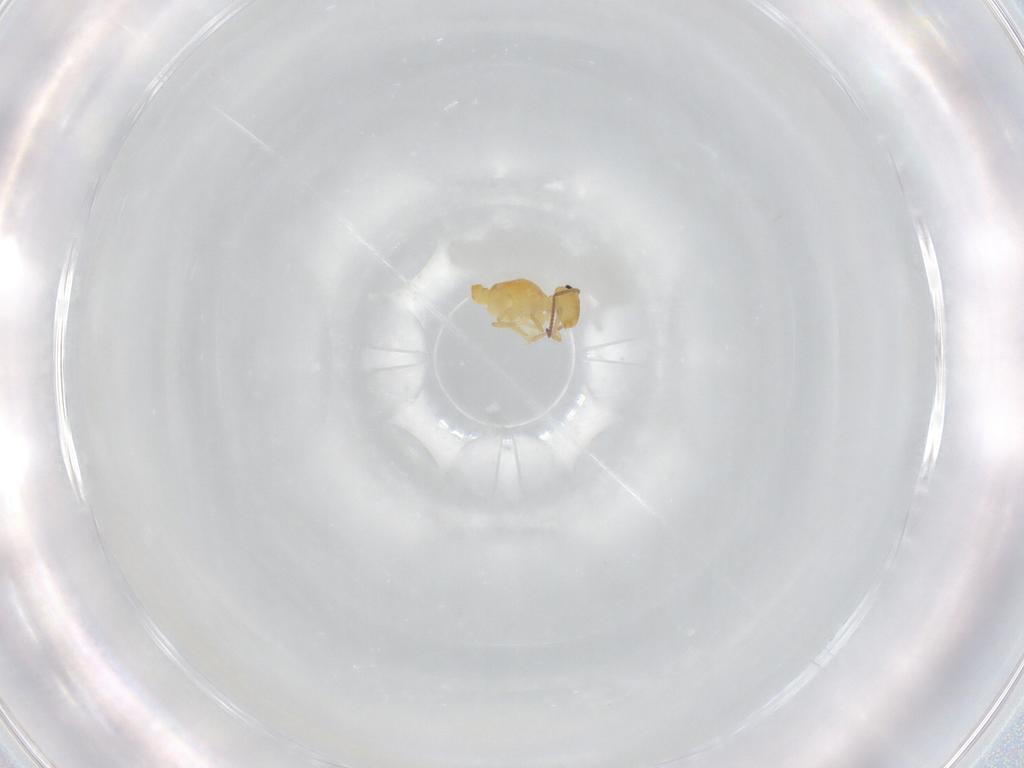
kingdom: Animalia
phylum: Arthropoda
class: Collembola
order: Symphypleona
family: Bourletiellidae
